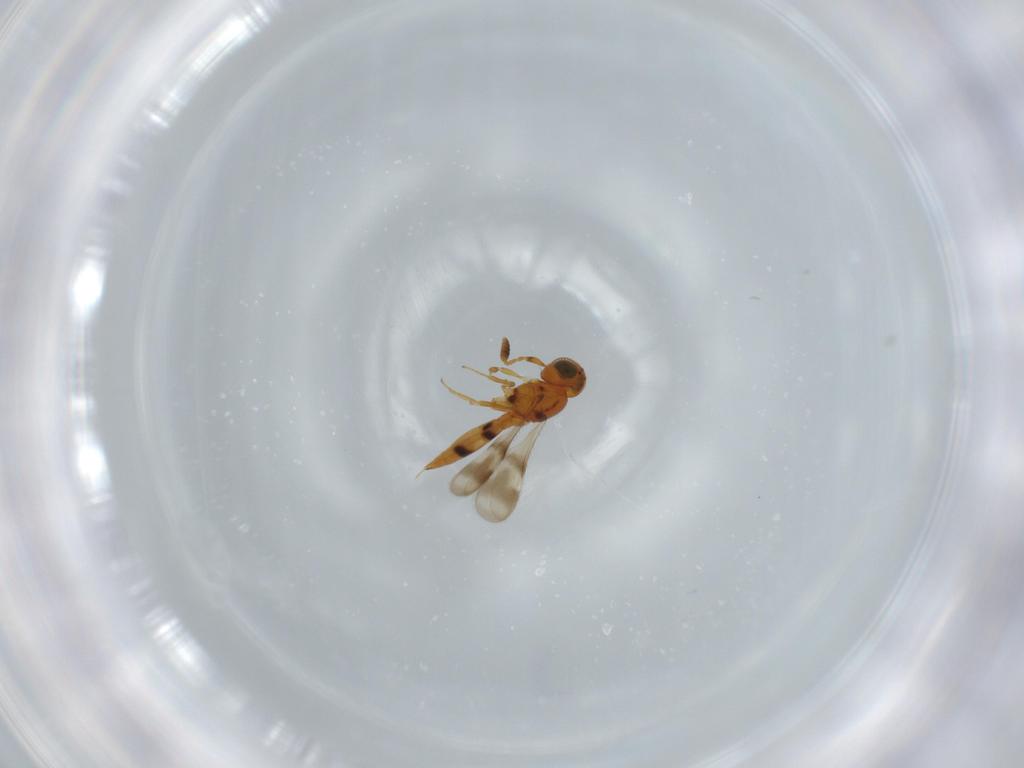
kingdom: Animalia
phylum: Arthropoda
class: Insecta
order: Hymenoptera
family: Scelionidae
